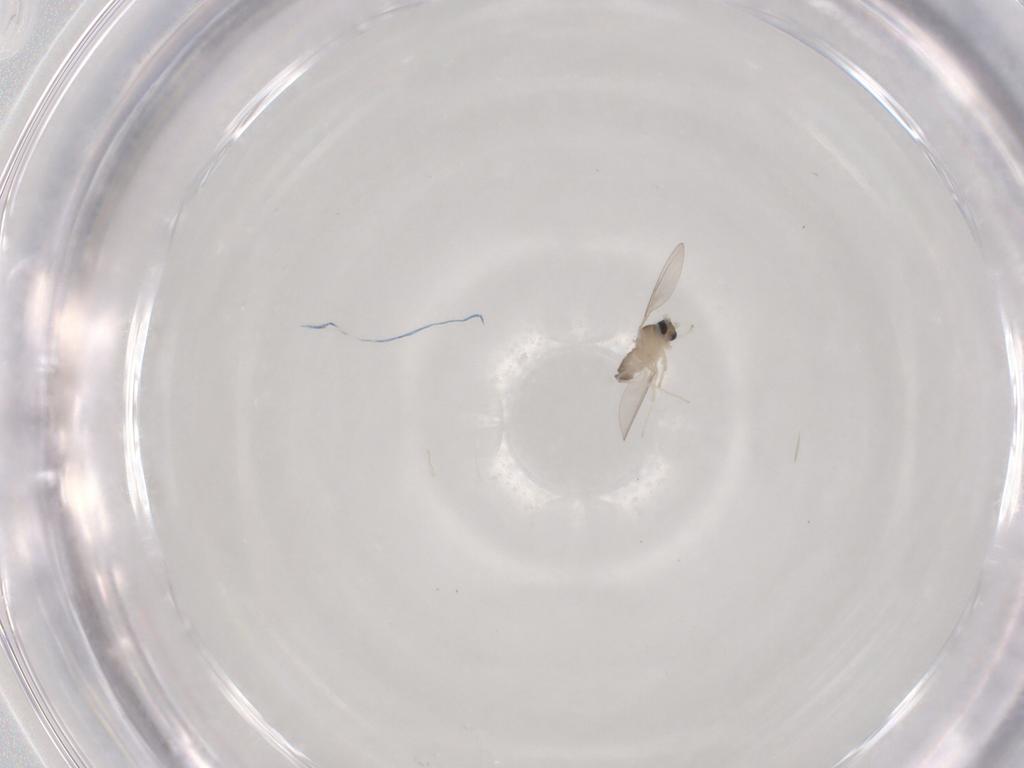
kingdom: Animalia
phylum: Arthropoda
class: Insecta
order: Diptera
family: Cecidomyiidae
